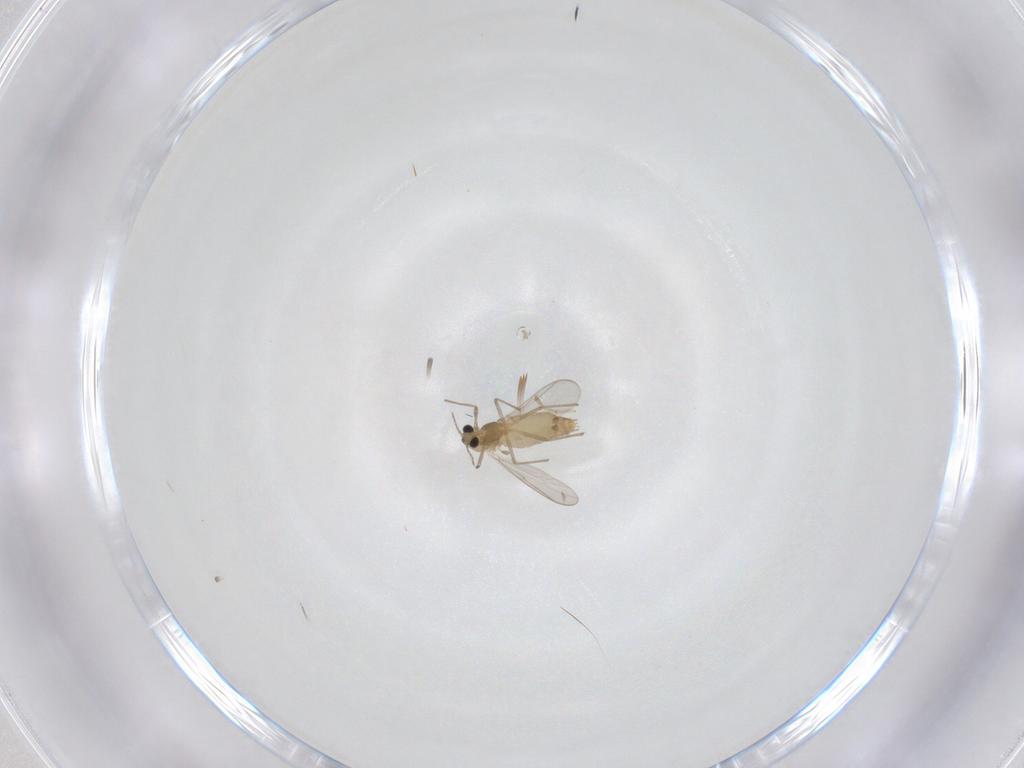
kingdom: Animalia
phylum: Arthropoda
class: Insecta
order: Diptera
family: Cecidomyiidae
